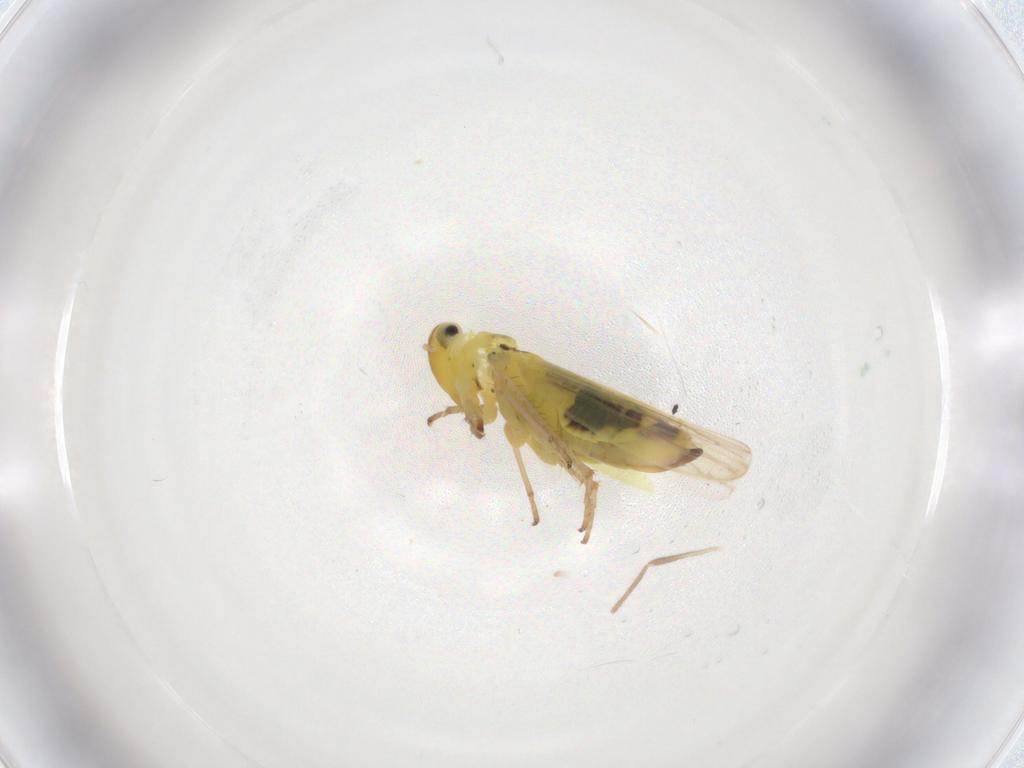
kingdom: Animalia
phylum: Arthropoda
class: Insecta
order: Hemiptera
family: Cicadellidae
